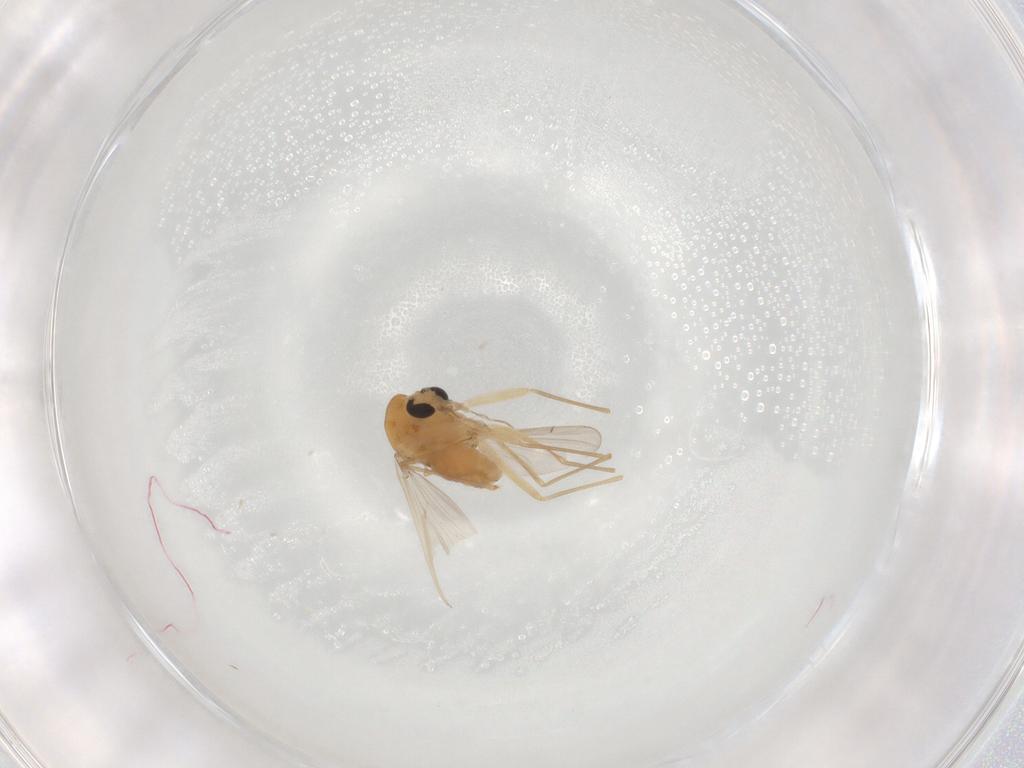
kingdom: Animalia
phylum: Arthropoda
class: Insecta
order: Diptera
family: Chironomidae
